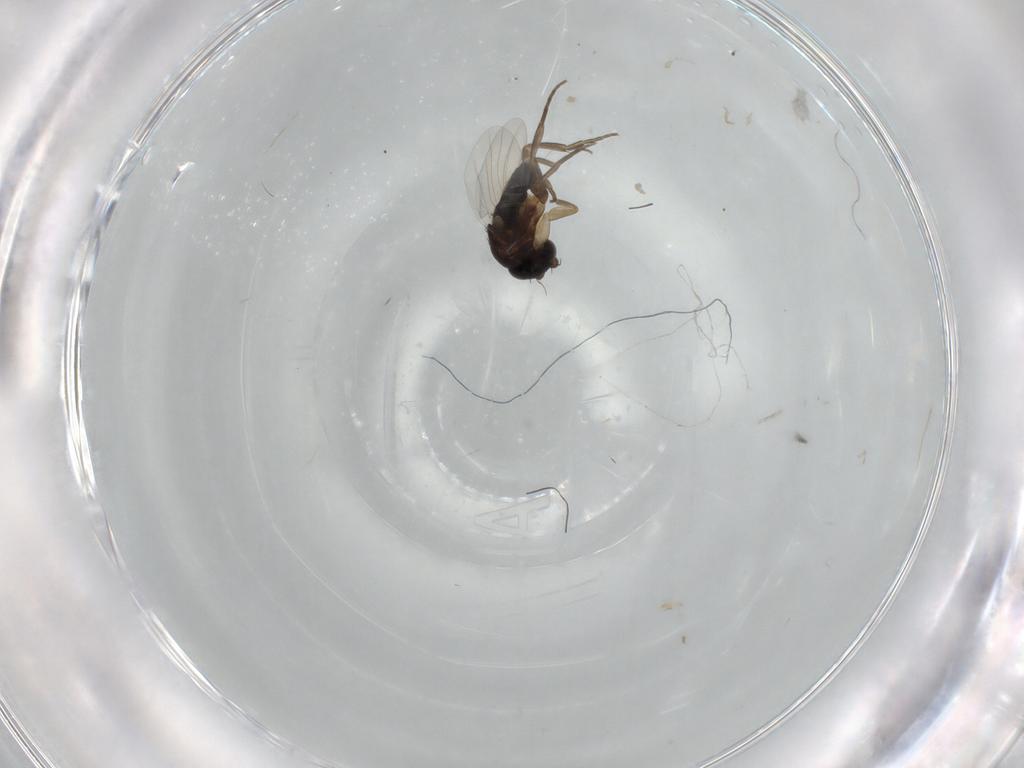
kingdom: Animalia
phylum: Arthropoda
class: Insecta
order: Diptera
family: Phoridae
